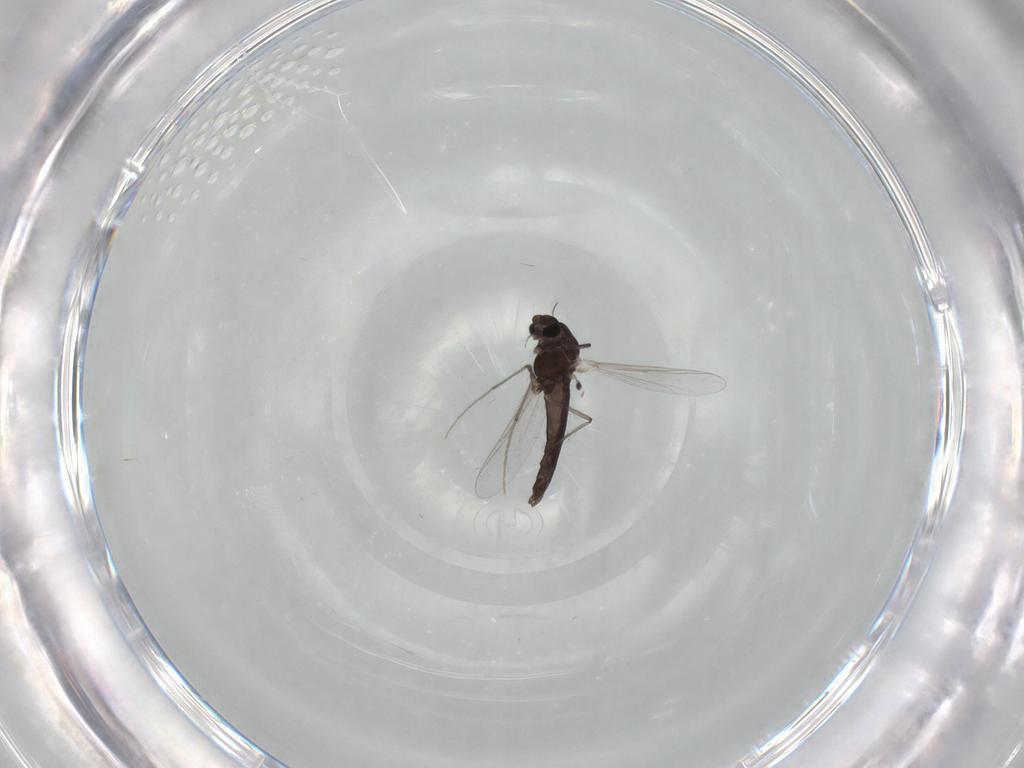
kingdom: Animalia
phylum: Arthropoda
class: Insecta
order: Diptera
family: Chironomidae
